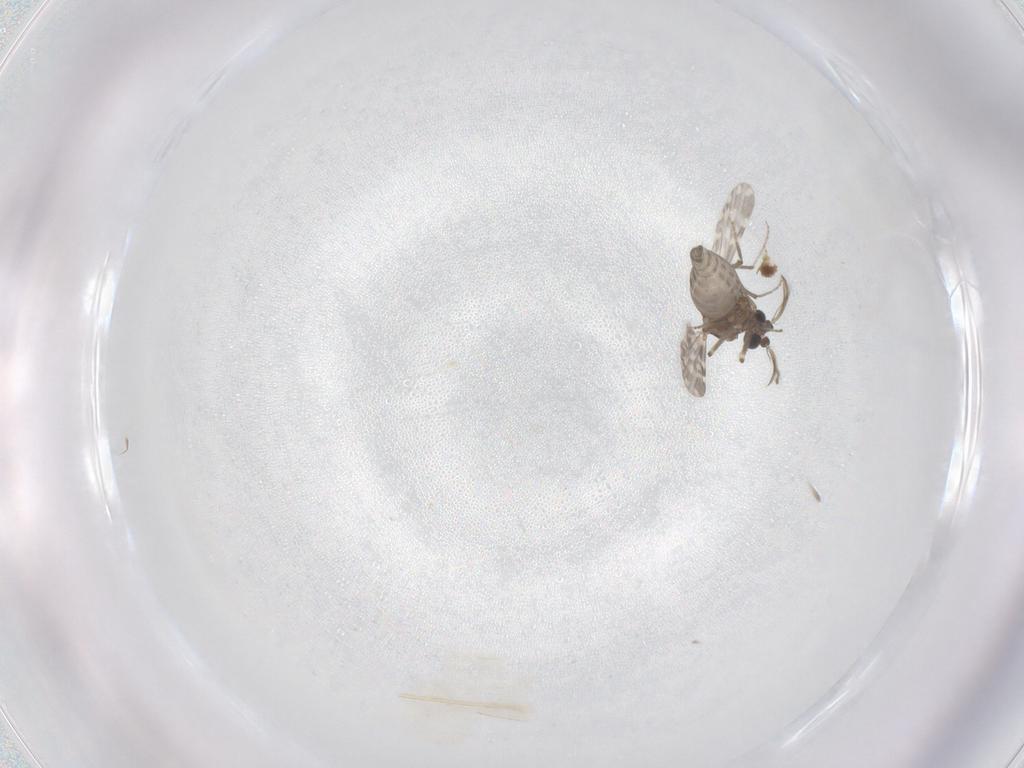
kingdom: Animalia
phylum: Arthropoda
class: Insecta
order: Diptera
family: Ceratopogonidae
